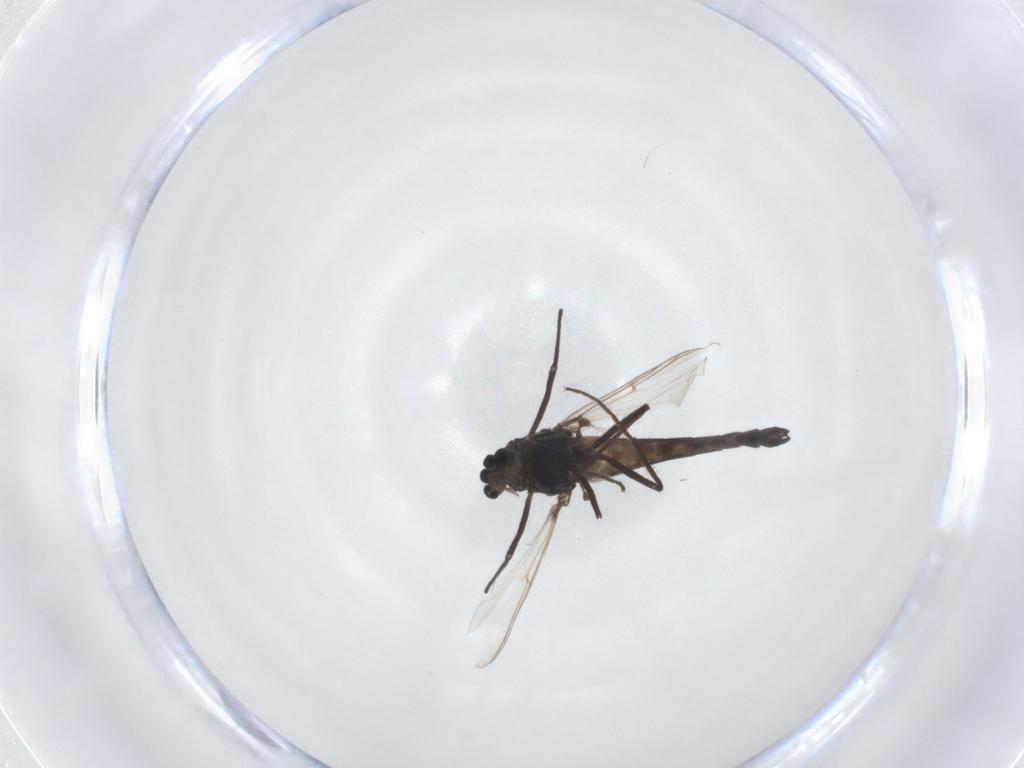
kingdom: Animalia
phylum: Arthropoda
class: Insecta
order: Diptera
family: Chironomidae
